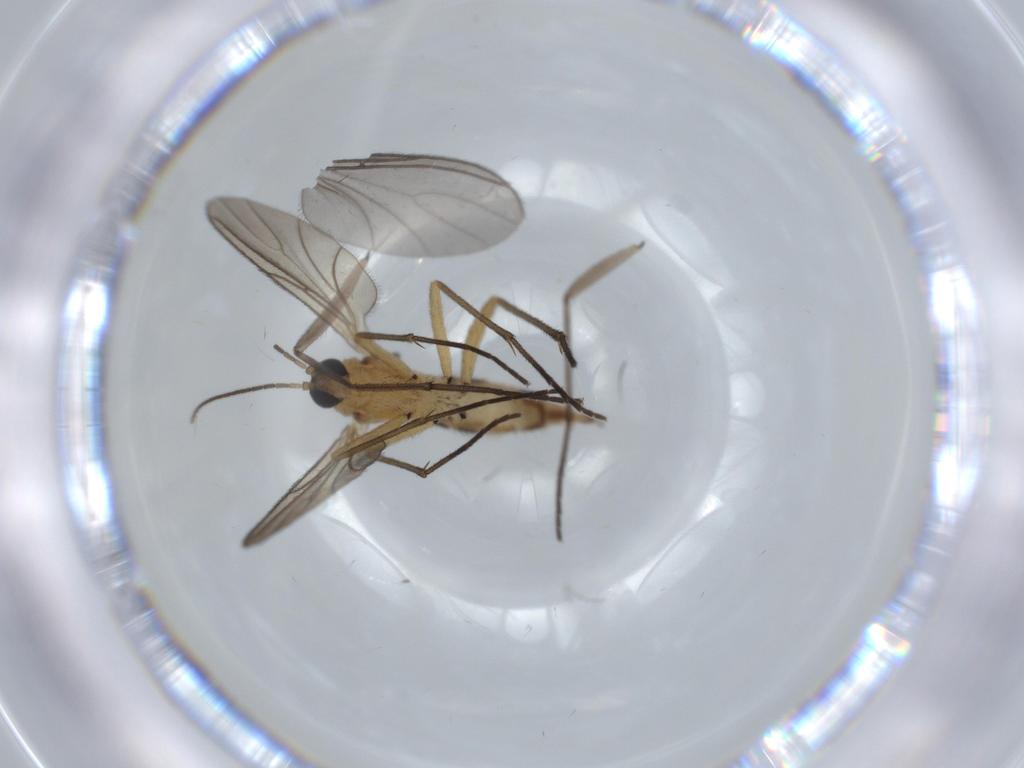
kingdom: Animalia
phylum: Arthropoda
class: Insecta
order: Diptera
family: Sciaridae
